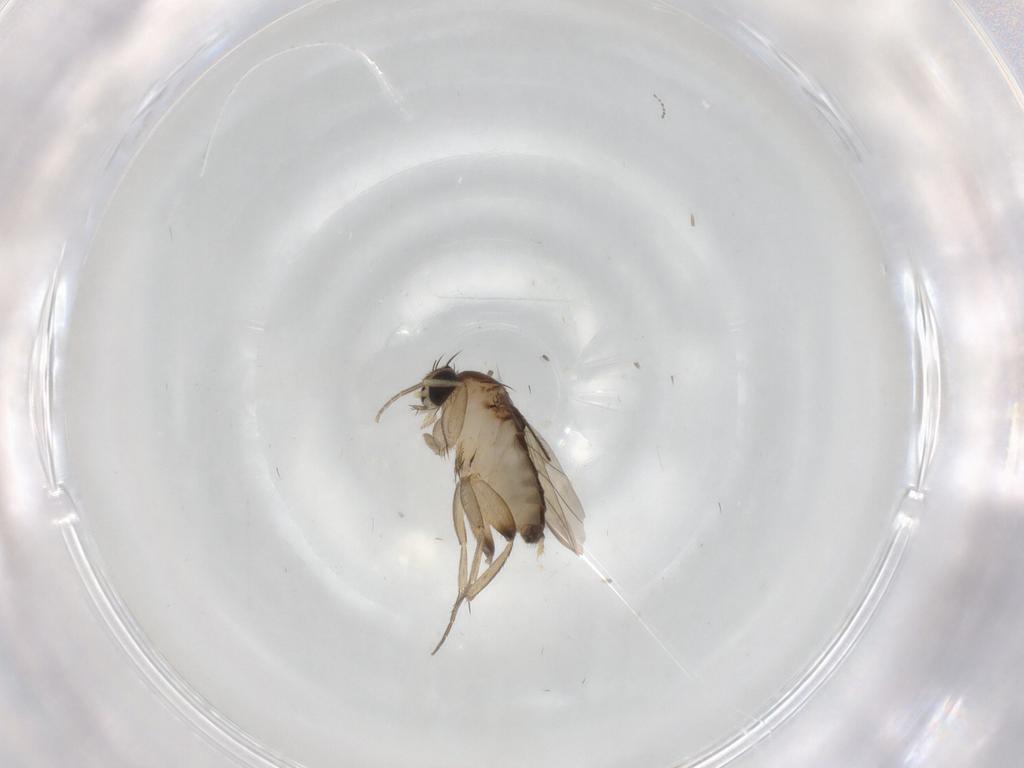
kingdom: Animalia
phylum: Arthropoda
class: Insecta
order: Diptera
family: Phoridae
